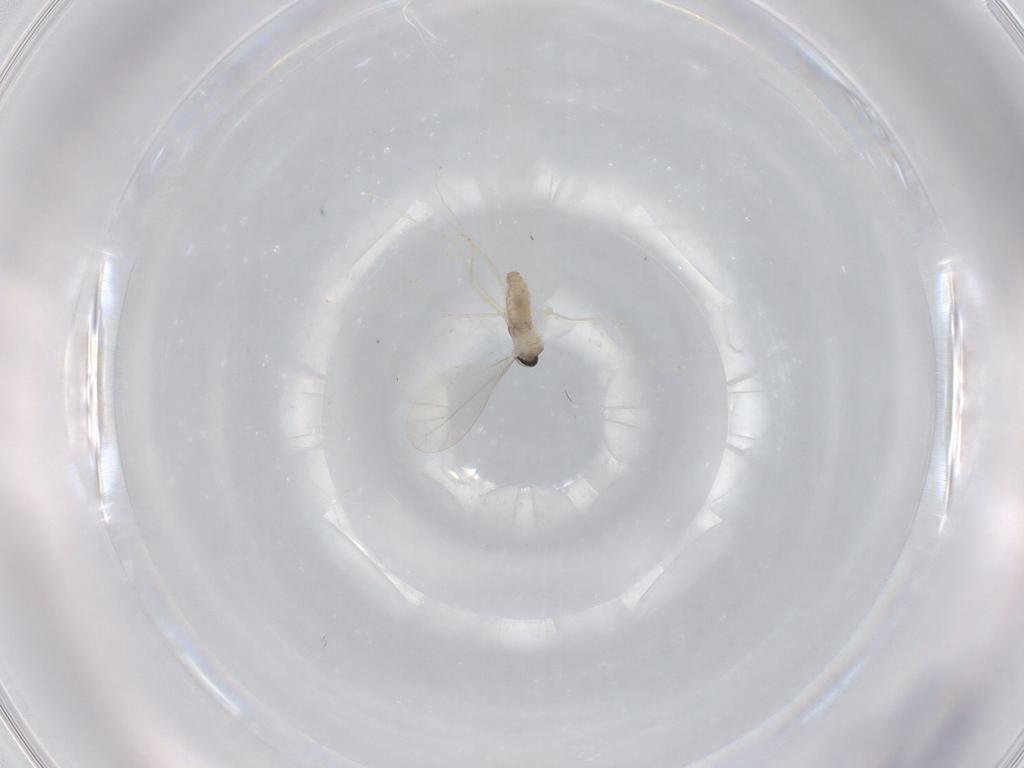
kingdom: Animalia
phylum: Arthropoda
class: Insecta
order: Diptera
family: Cecidomyiidae
